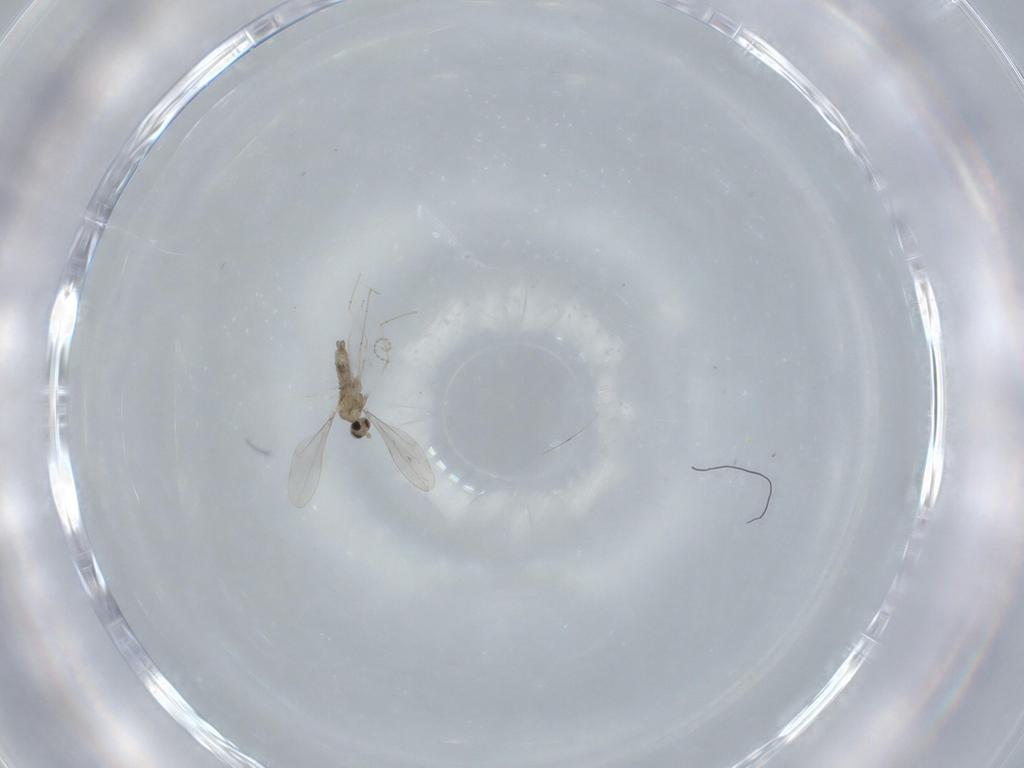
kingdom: Animalia
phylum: Arthropoda
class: Insecta
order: Diptera
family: Cecidomyiidae
